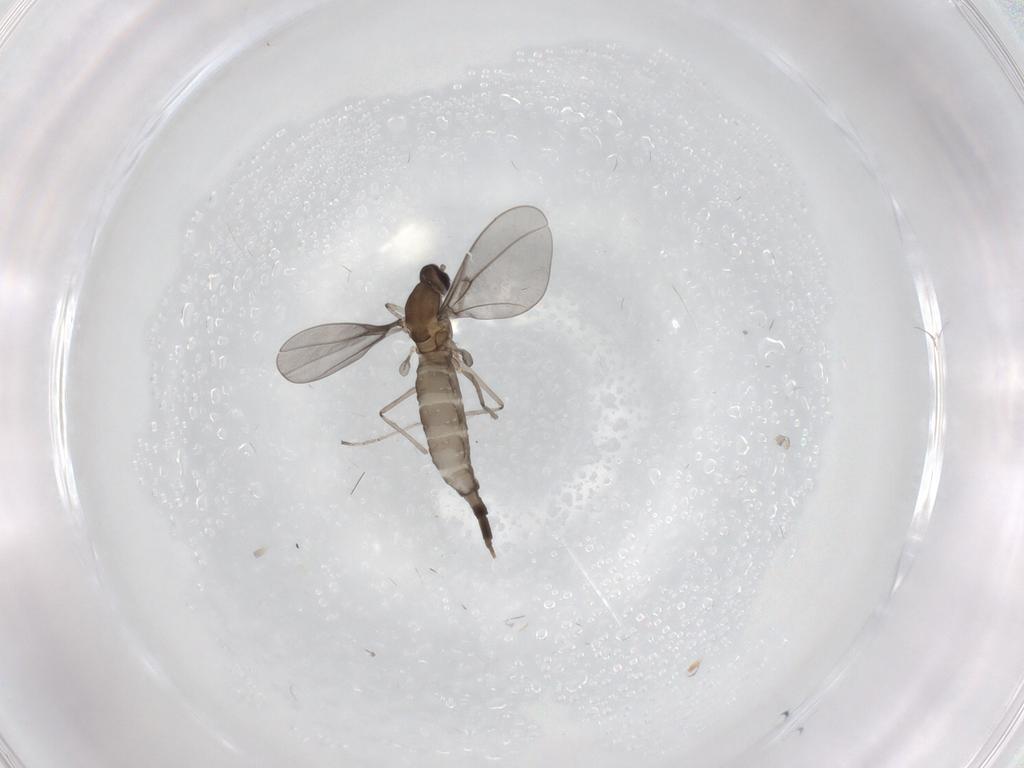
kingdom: Animalia
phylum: Arthropoda
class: Insecta
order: Diptera
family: Cecidomyiidae
